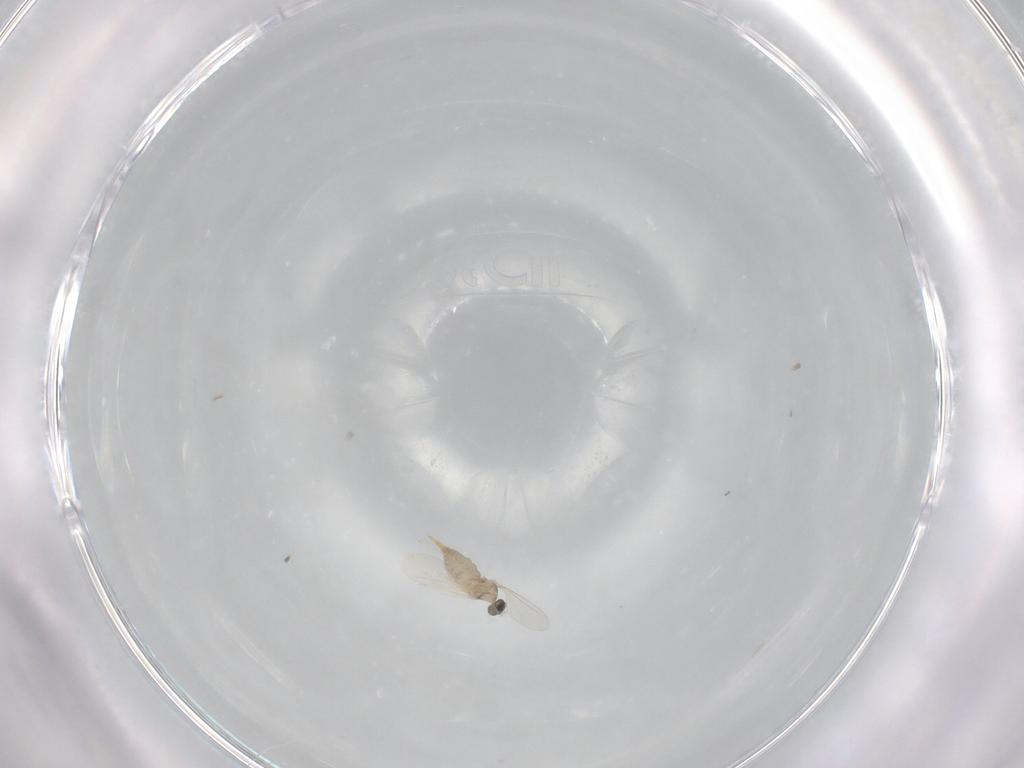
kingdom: Animalia
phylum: Arthropoda
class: Insecta
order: Diptera
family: Cecidomyiidae
